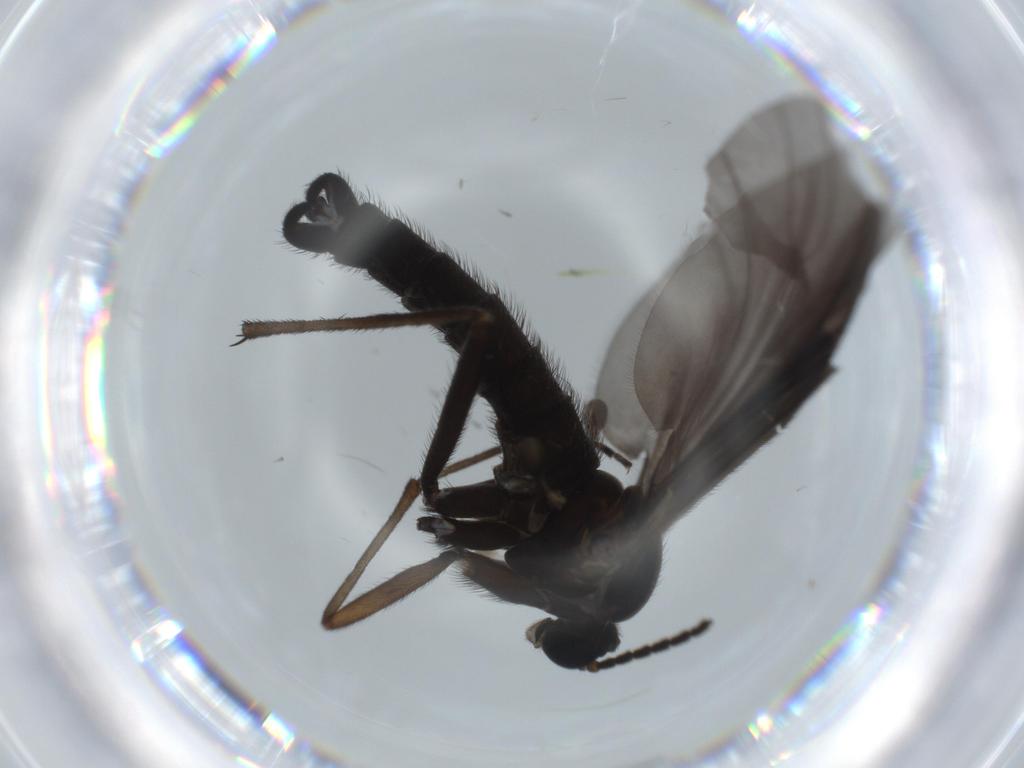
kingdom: Animalia
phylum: Arthropoda
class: Insecta
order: Diptera
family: Sciaridae
